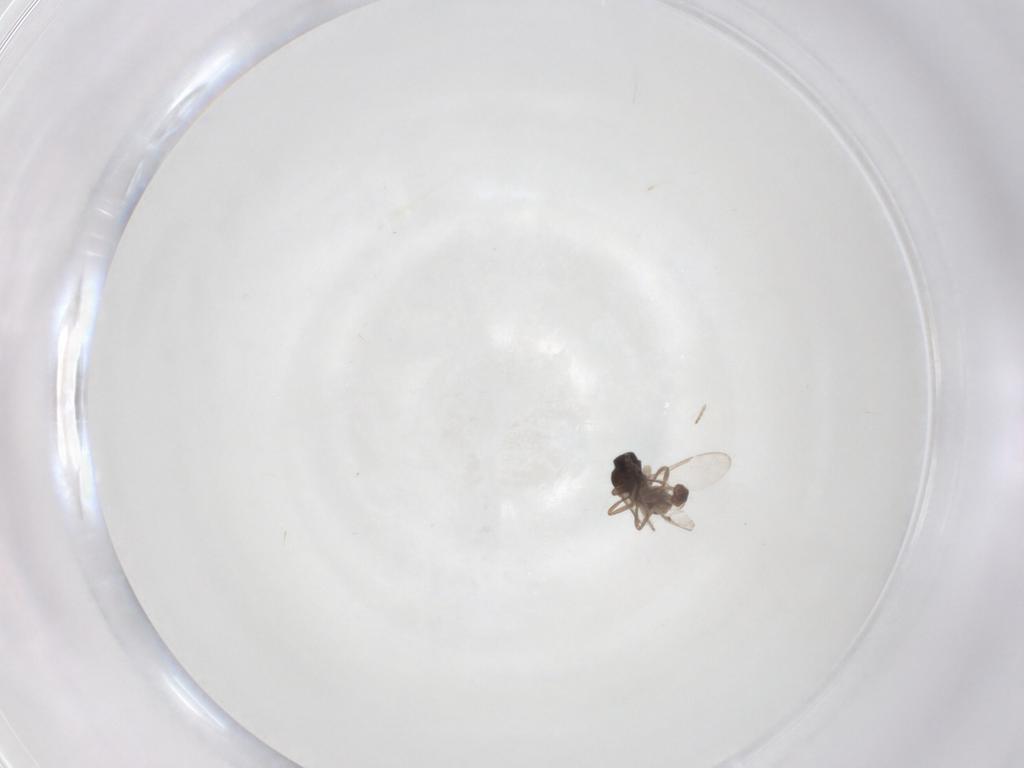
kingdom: Animalia
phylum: Arthropoda
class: Insecta
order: Diptera
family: Ceratopogonidae
